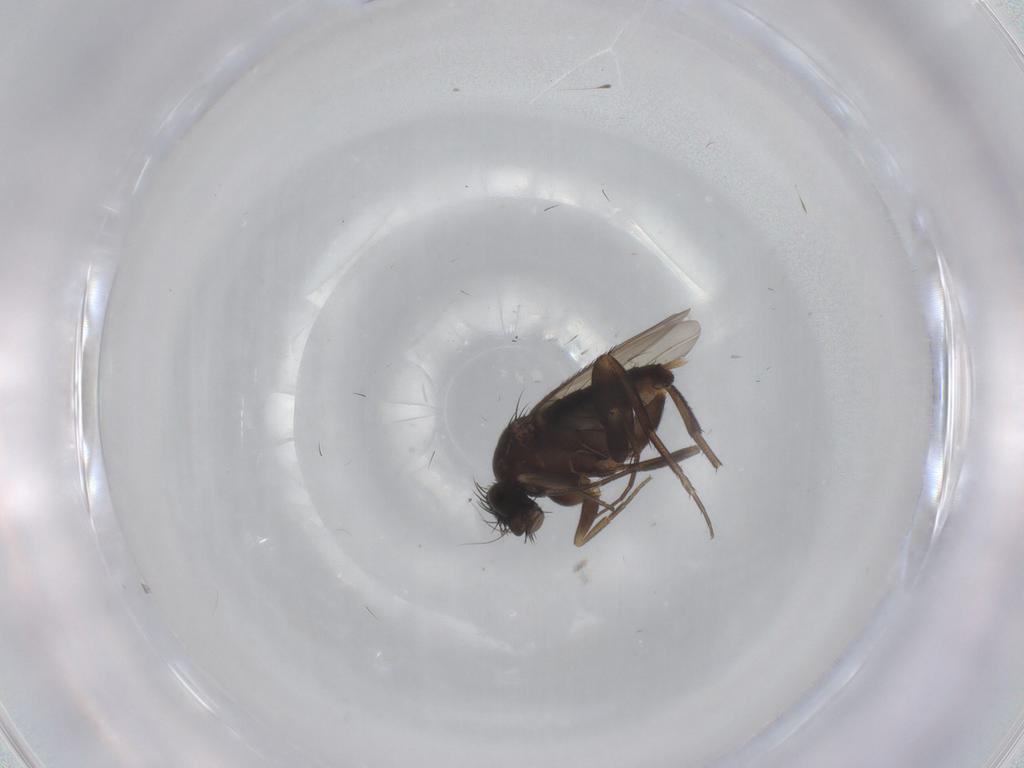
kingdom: Animalia
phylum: Arthropoda
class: Insecta
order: Diptera
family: Phoridae
